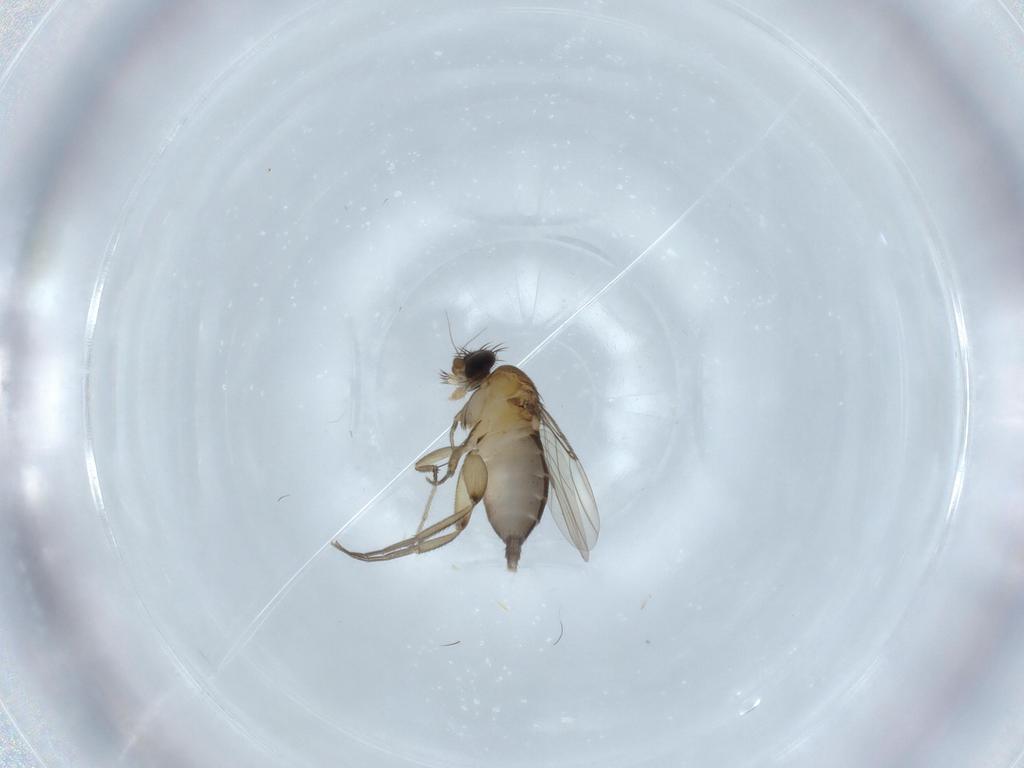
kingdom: Animalia
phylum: Arthropoda
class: Insecta
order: Diptera
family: Phoridae
